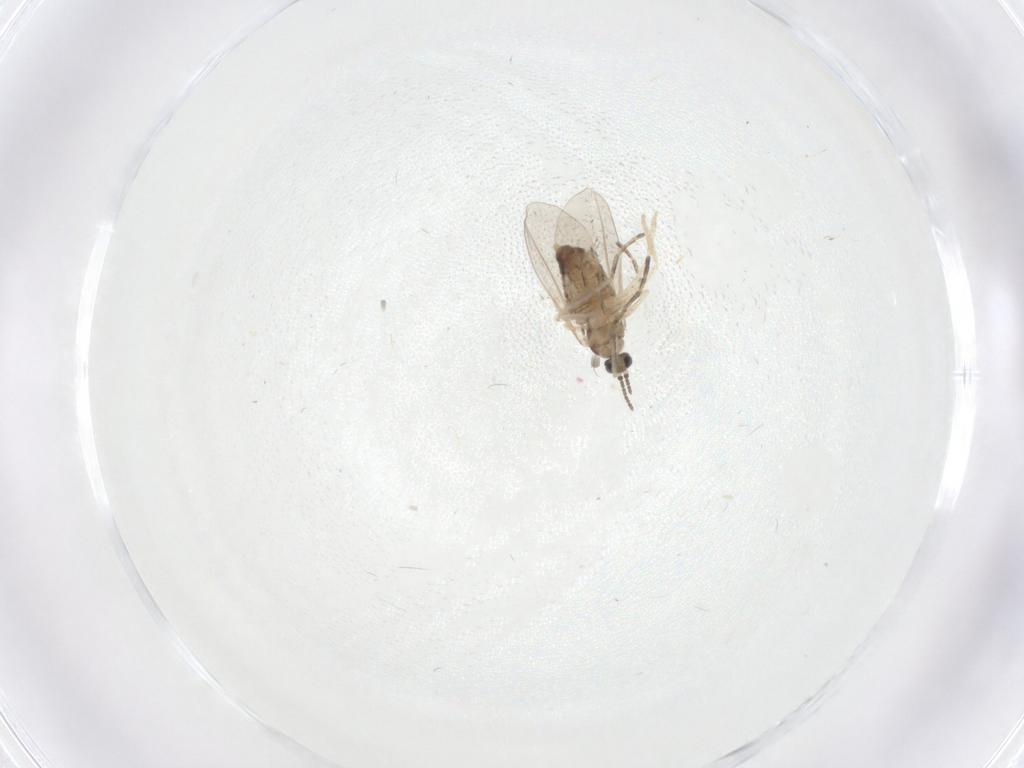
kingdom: Animalia
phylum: Arthropoda
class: Insecta
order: Diptera
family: Cecidomyiidae
